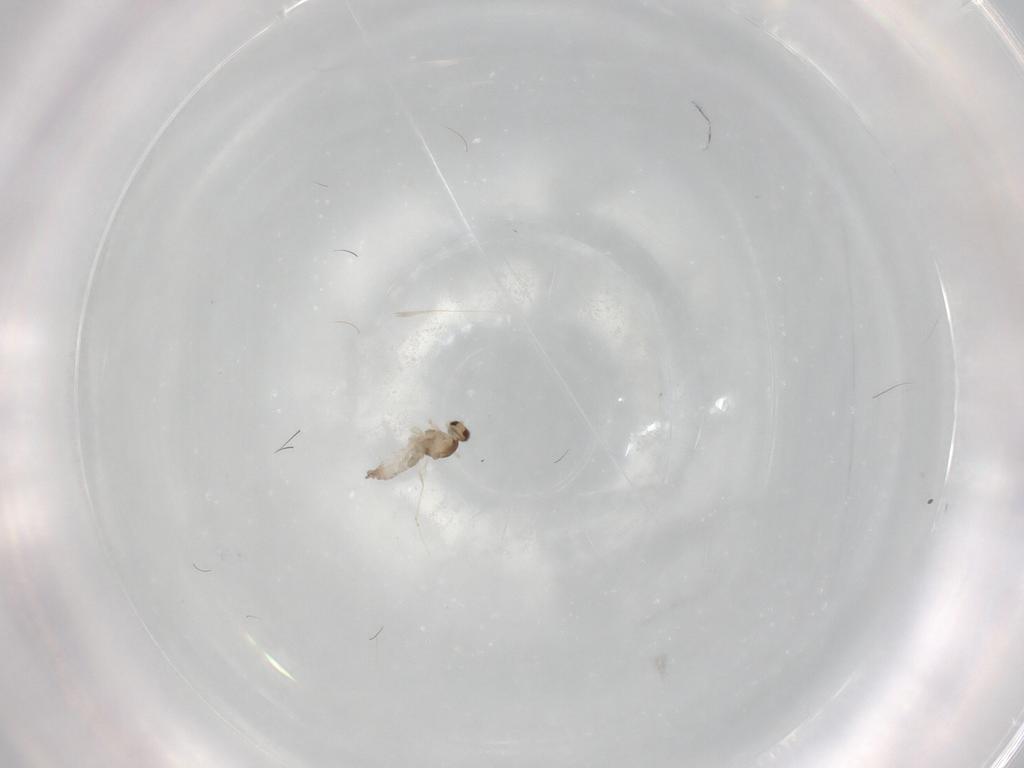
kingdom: Animalia
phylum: Arthropoda
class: Insecta
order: Diptera
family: Cecidomyiidae
